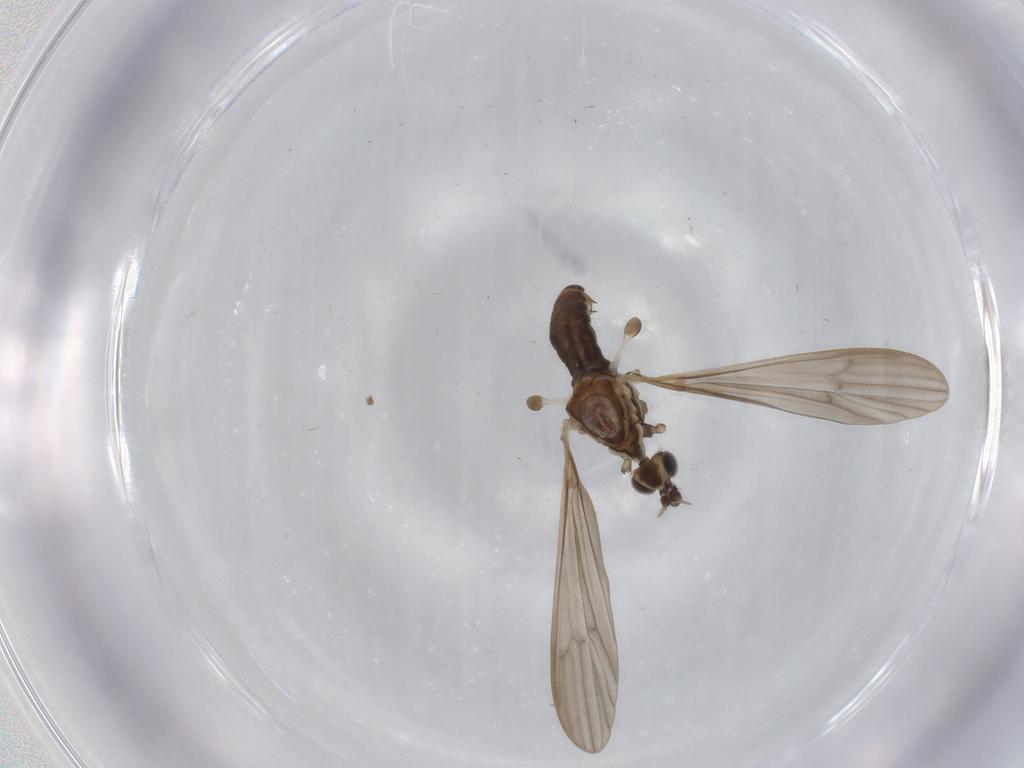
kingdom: Animalia
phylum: Arthropoda
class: Insecta
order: Diptera
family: Limoniidae
